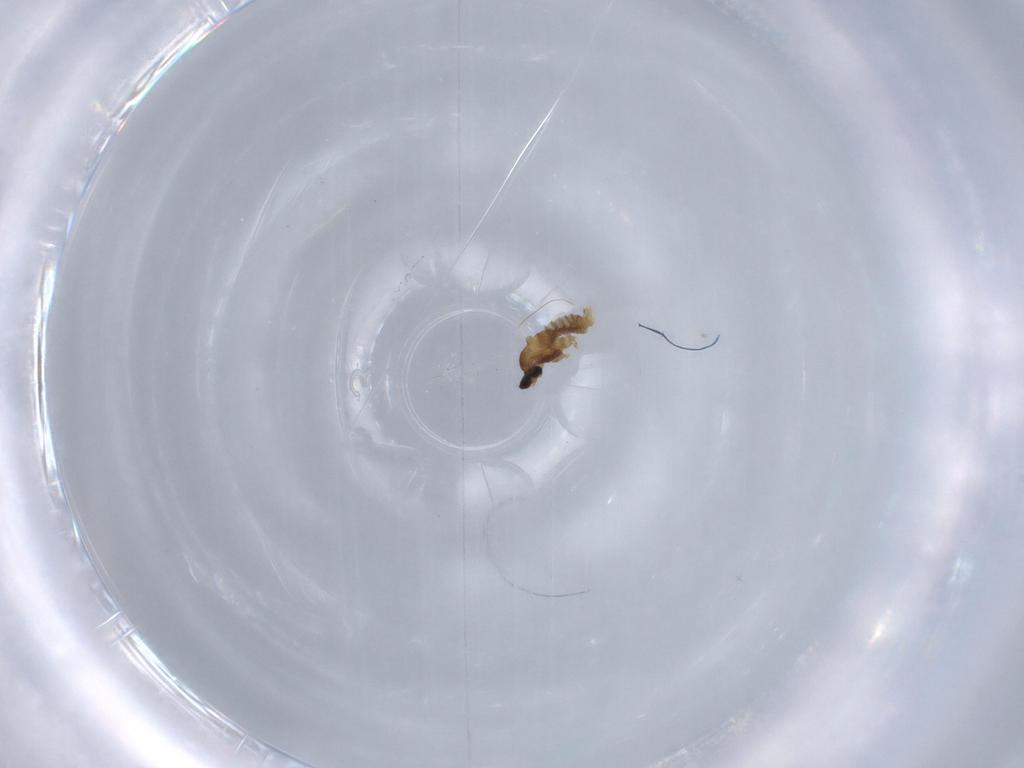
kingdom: Animalia
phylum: Arthropoda
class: Insecta
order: Diptera
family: Cecidomyiidae
